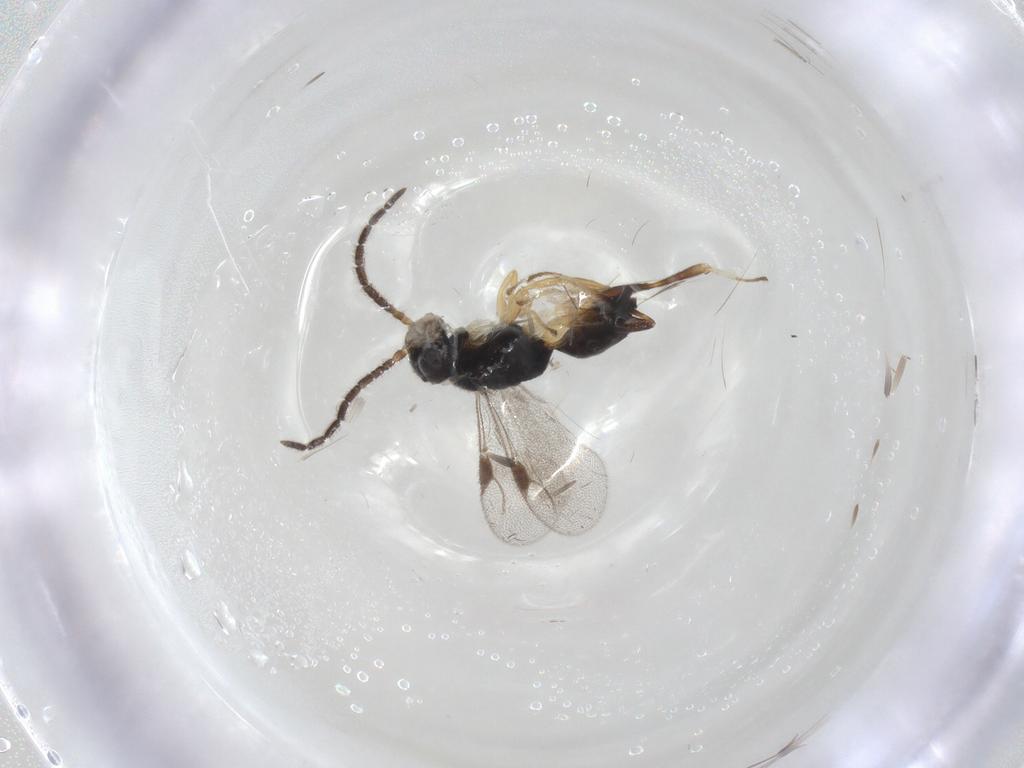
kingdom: Animalia
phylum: Arthropoda
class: Insecta
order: Hymenoptera
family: Dryinidae
